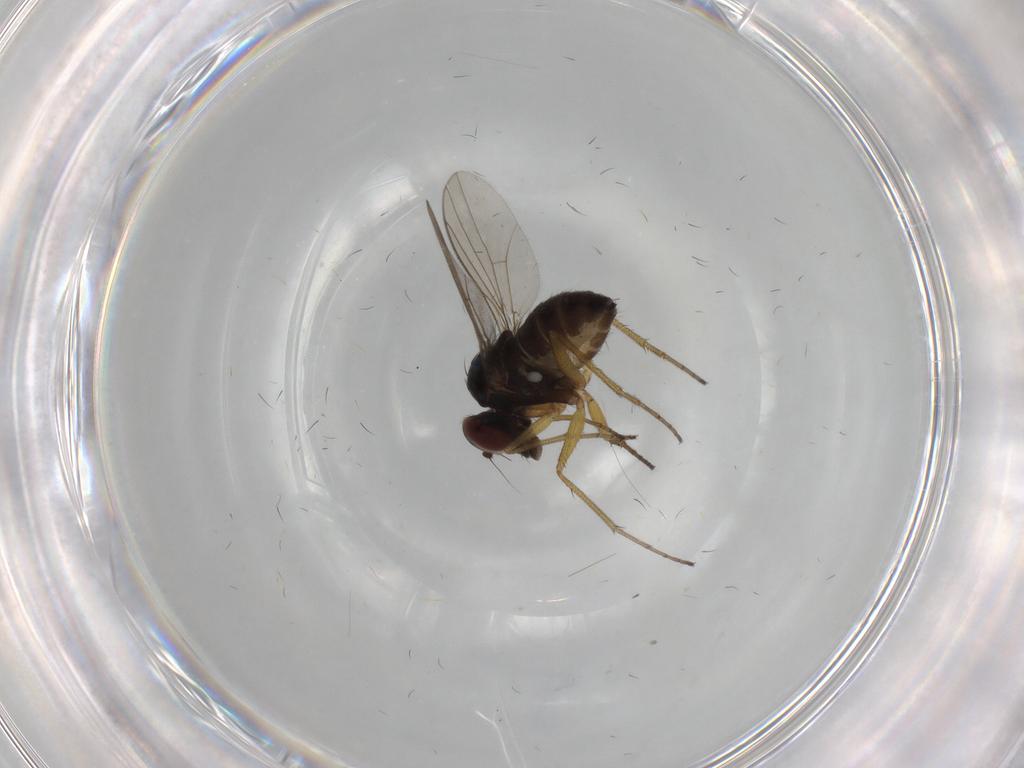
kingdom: Animalia
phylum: Arthropoda
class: Insecta
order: Diptera
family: Dolichopodidae
